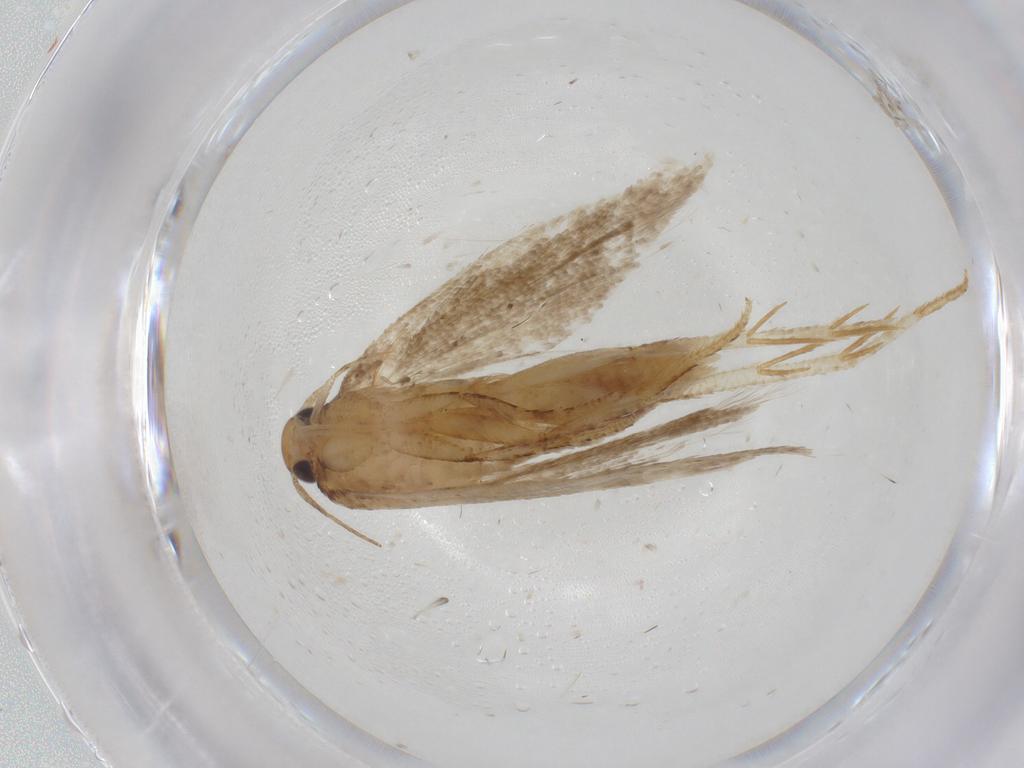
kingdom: Animalia
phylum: Arthropoda
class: Insecta
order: Lepidoptera
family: Gelechiidae
